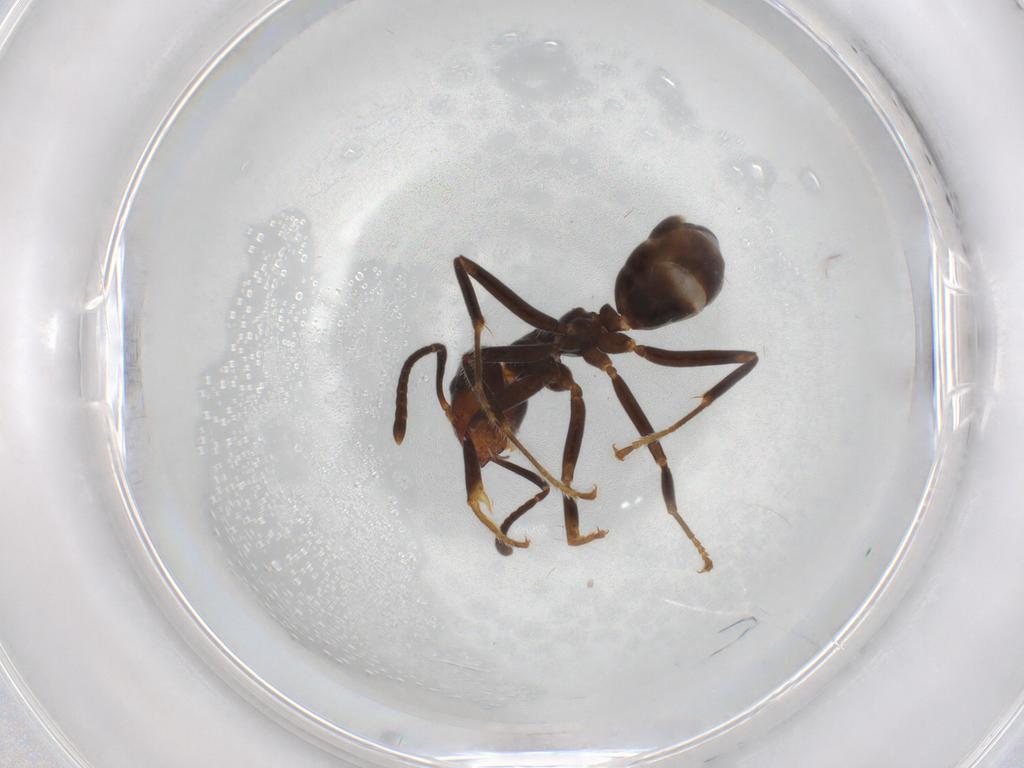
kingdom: Animalia
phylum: Arthropoda
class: Insecta
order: Hymenoptera
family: Formicidae
